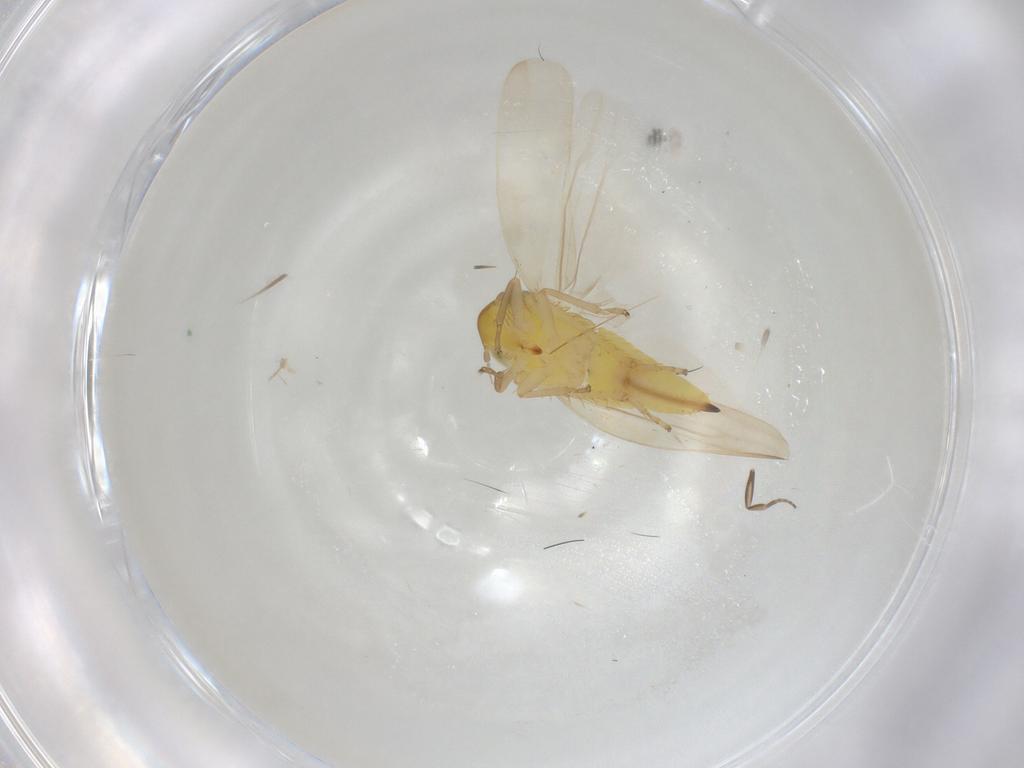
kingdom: Animalia
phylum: Arthropoda
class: Insecta
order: Hemiptera
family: Cicadellidae
